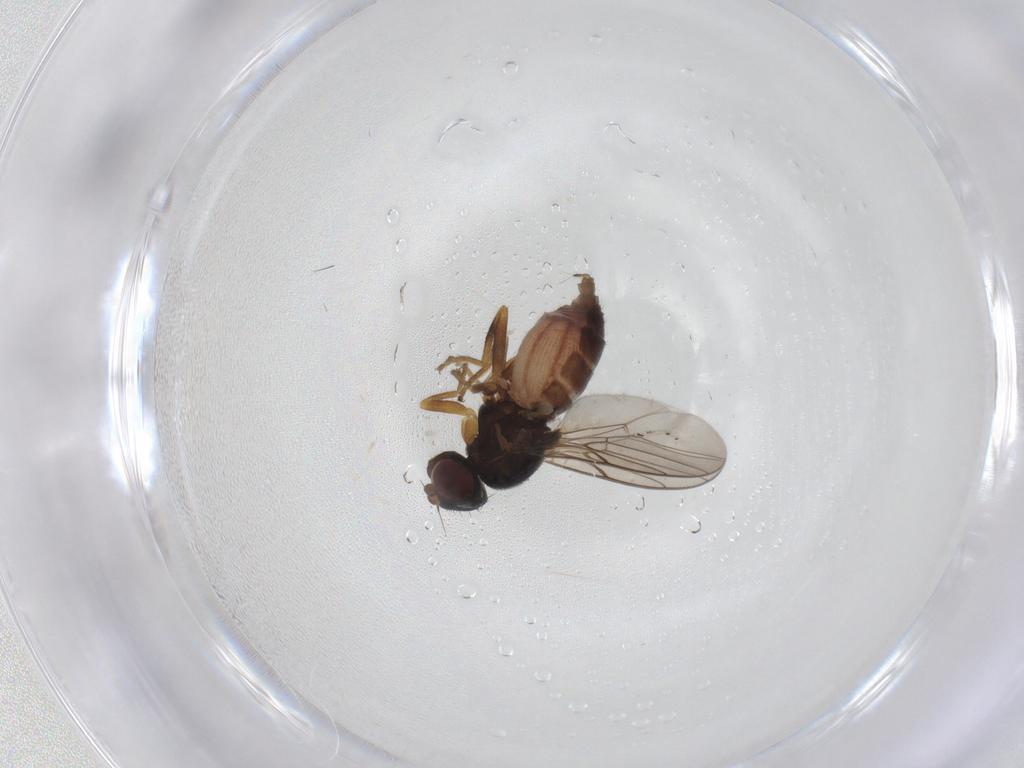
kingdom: Animalia
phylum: Arthropoda
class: Insecta
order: Diptera
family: Chloropidae
